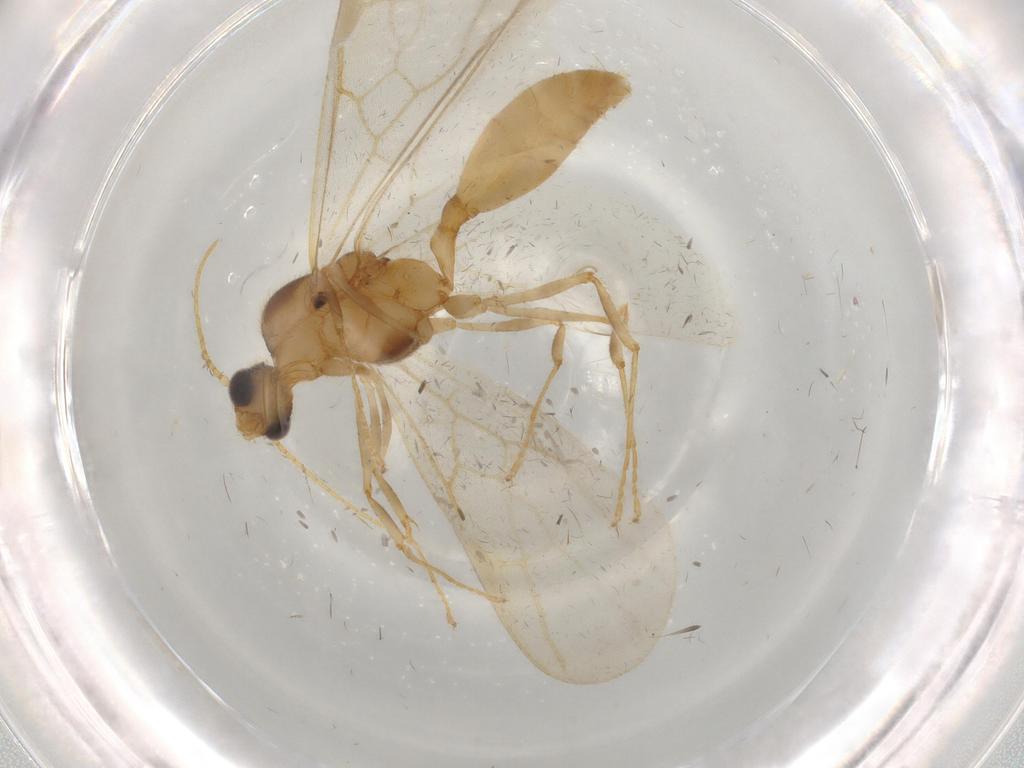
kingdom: Animalia
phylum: Arthropoda
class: Insecta
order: Hymenoptera
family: Formicidae
